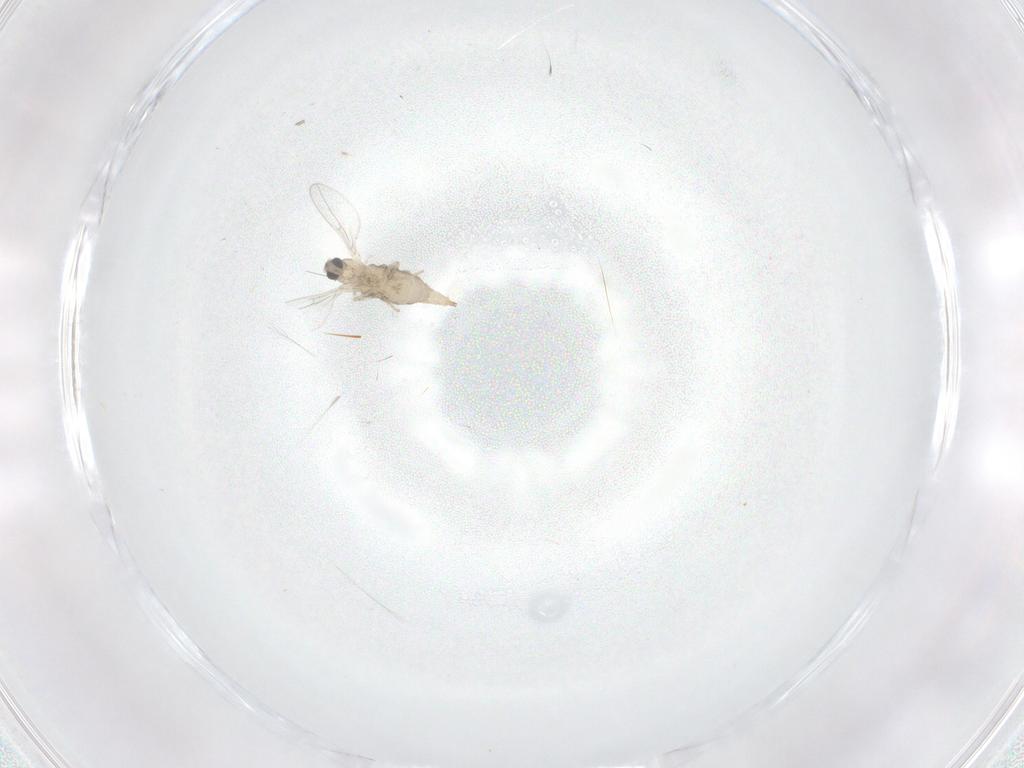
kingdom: Animalia
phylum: Arthropoda
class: Insecta
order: Diptera
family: Cecidomyiidae
